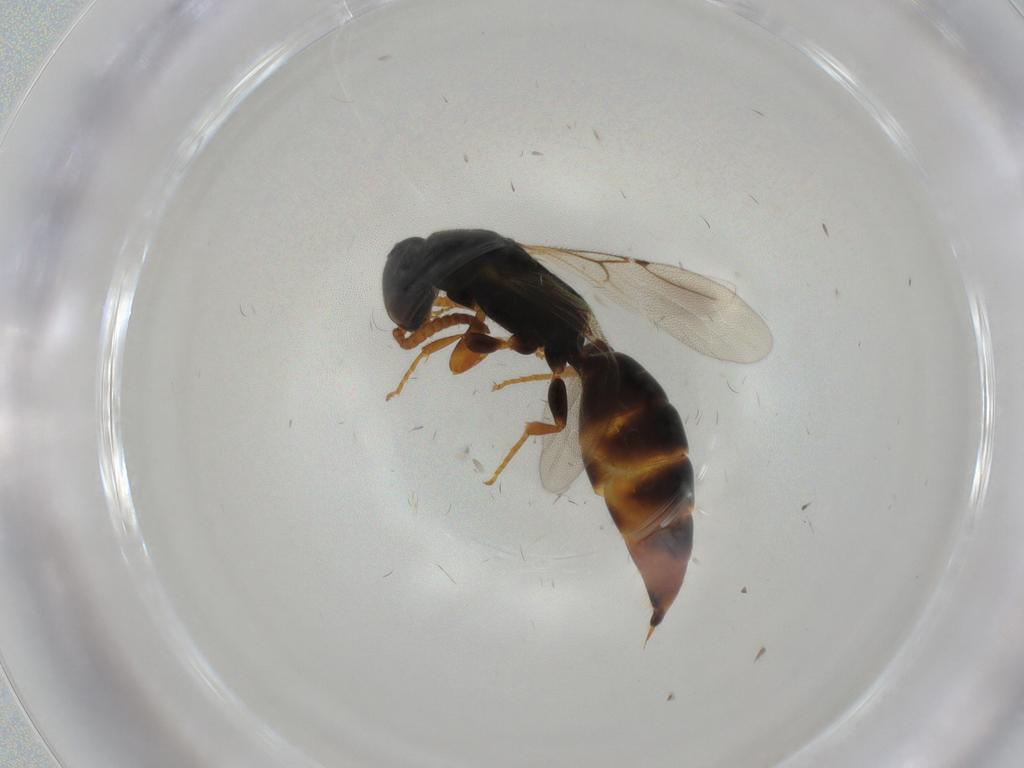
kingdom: Animalia
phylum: Arthropoda
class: Insecta
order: Hymenoptera
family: Bethylidae
